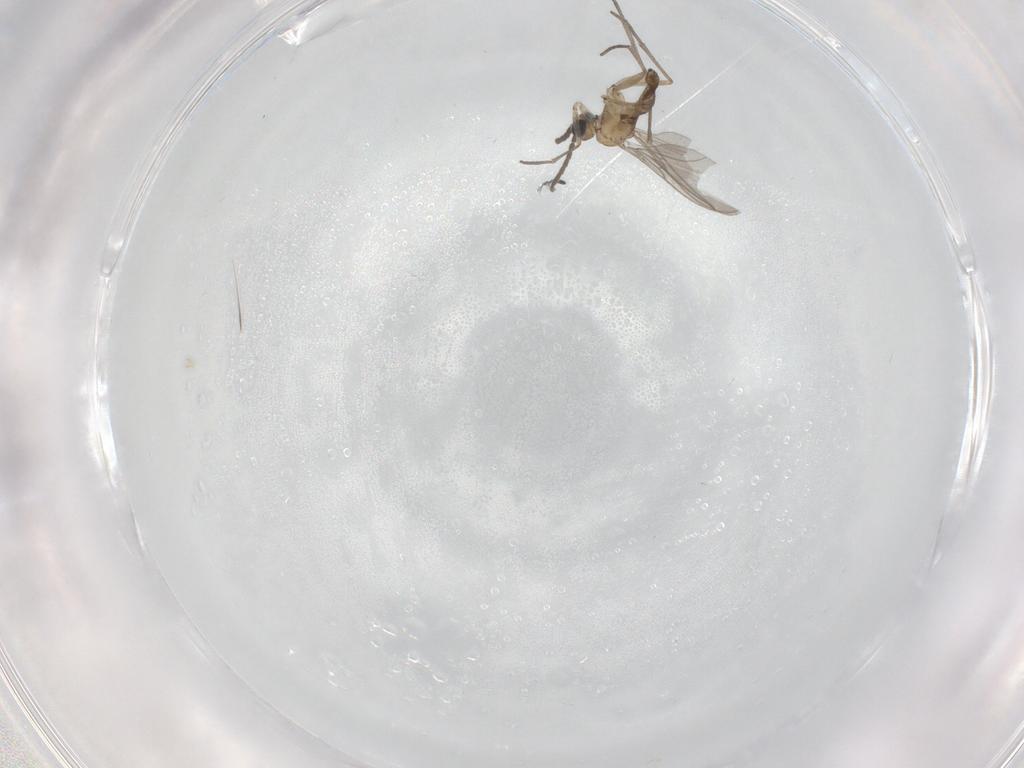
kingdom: Animalia
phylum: Arthropoda
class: Insecta
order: Diptera
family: Sciaridae
